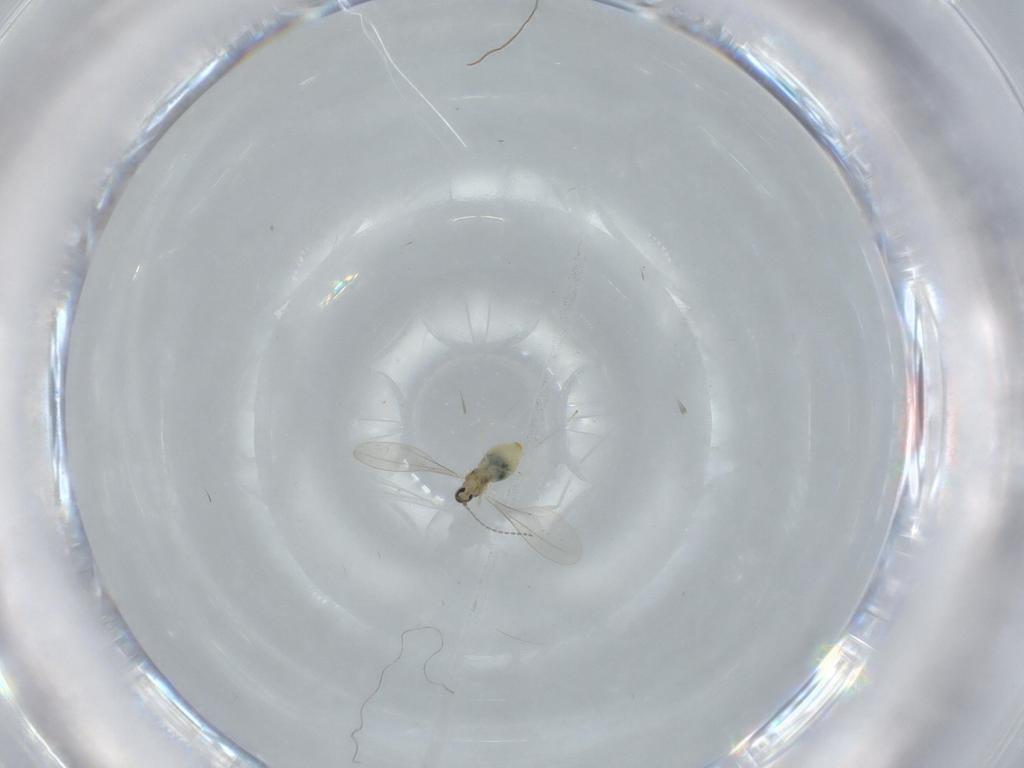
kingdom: Animalia
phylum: Arthropoda
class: Insecta
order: Diptera
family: Cecidomyiidae
